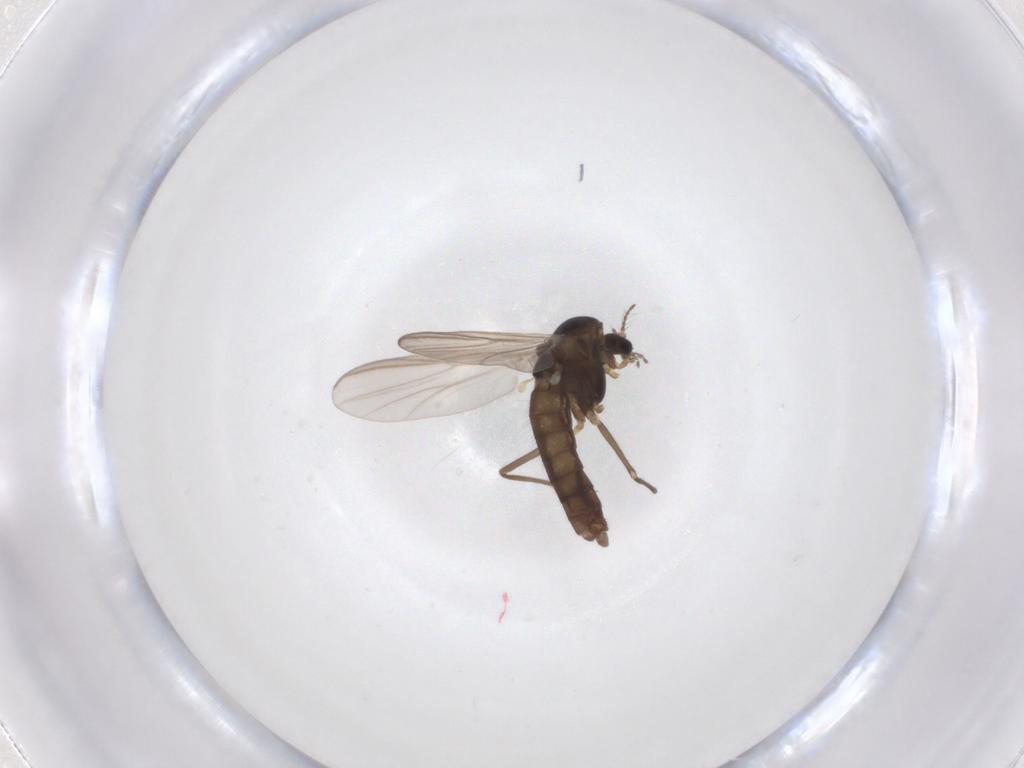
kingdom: Animalia
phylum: Arthropoda
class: Insecta
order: Diptera
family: Chironomidae
